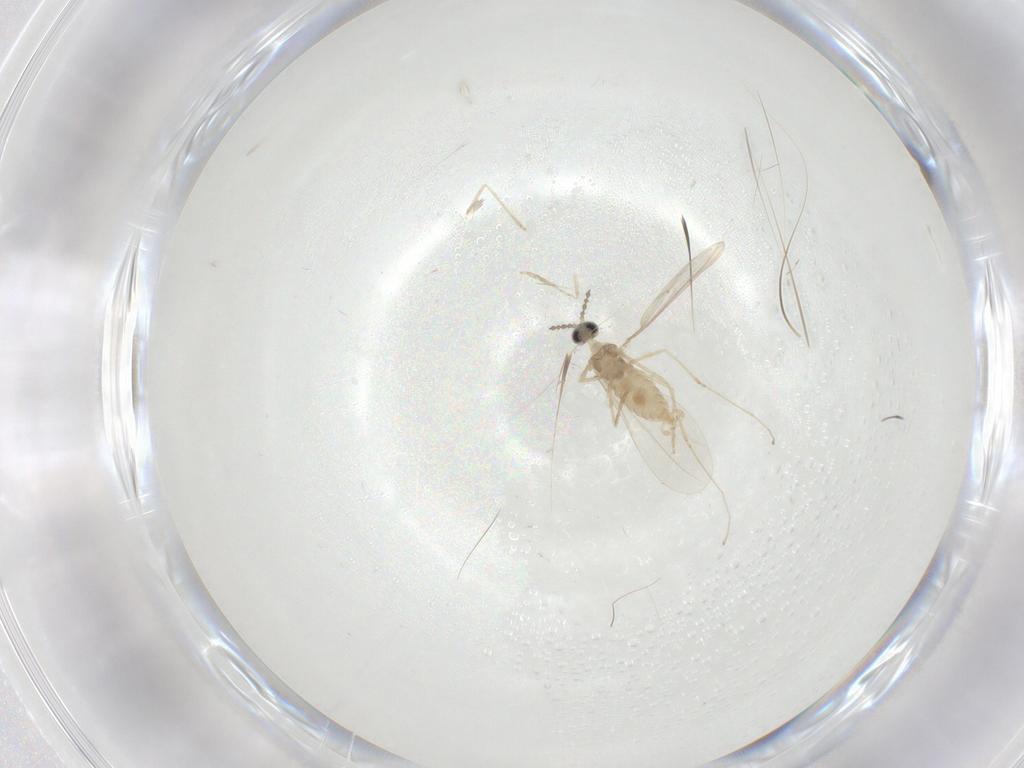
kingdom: Animalia
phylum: Arthropoda
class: Insecta
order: Diptera
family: Cecidomyiidae
